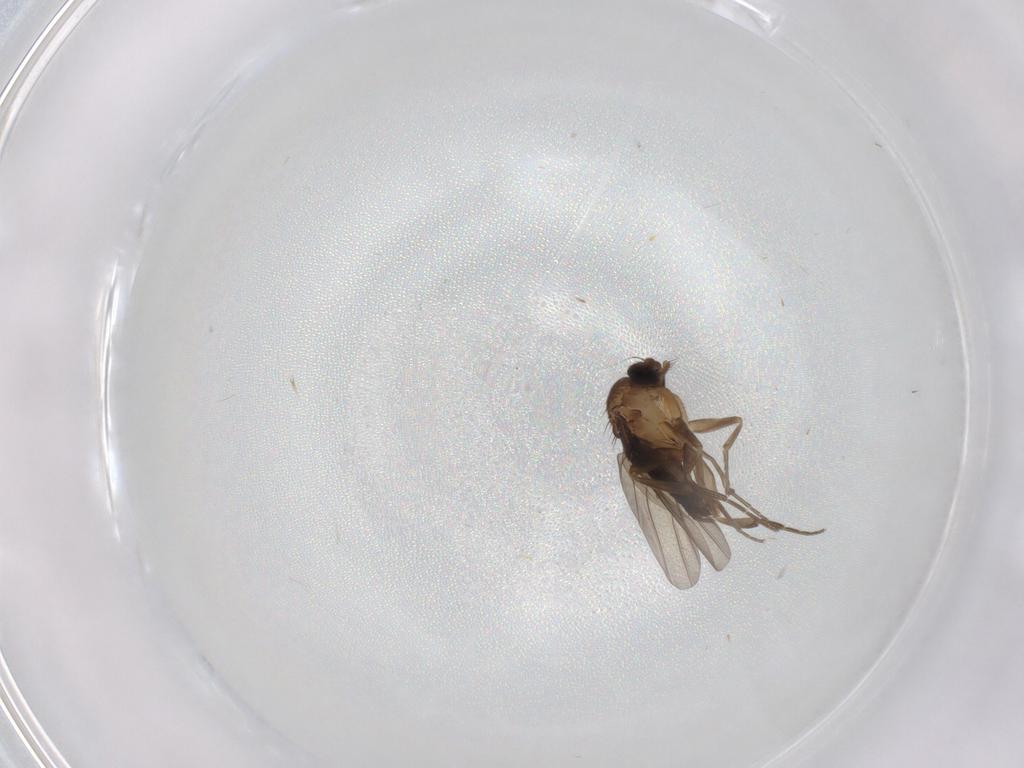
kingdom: Animalia
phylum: Arthropoda
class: Insecta
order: Diptera
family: Phoridae
